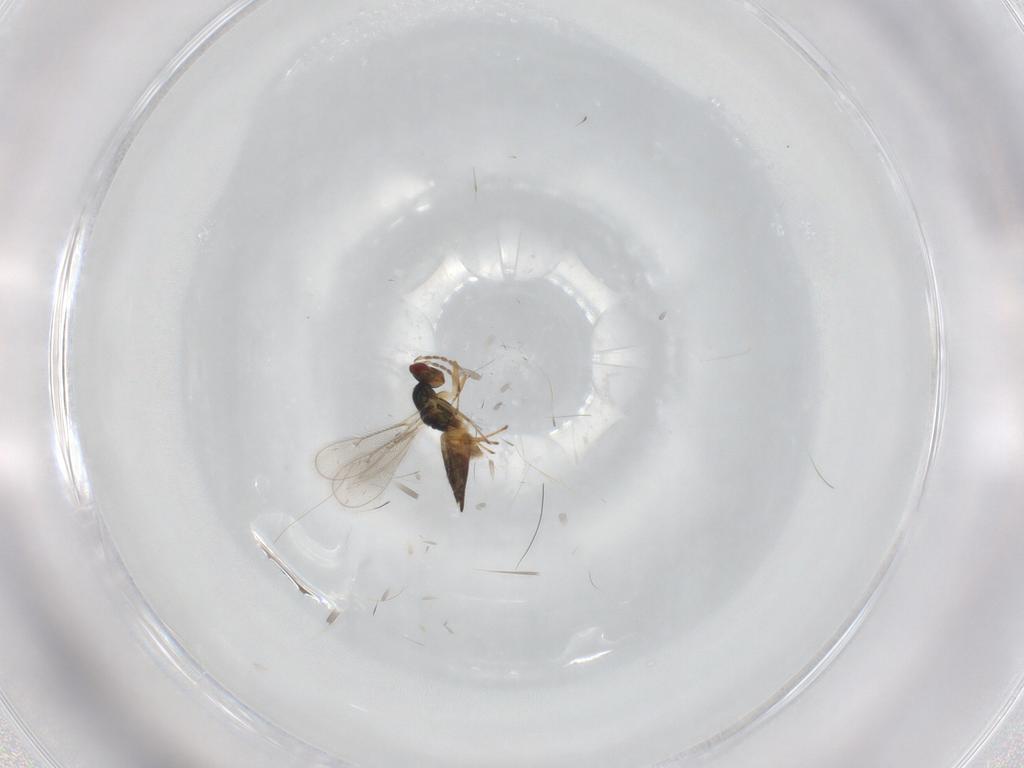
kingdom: Animalia
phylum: Arthropoda
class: Insecta
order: Hymenoptera
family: Eulophidae
